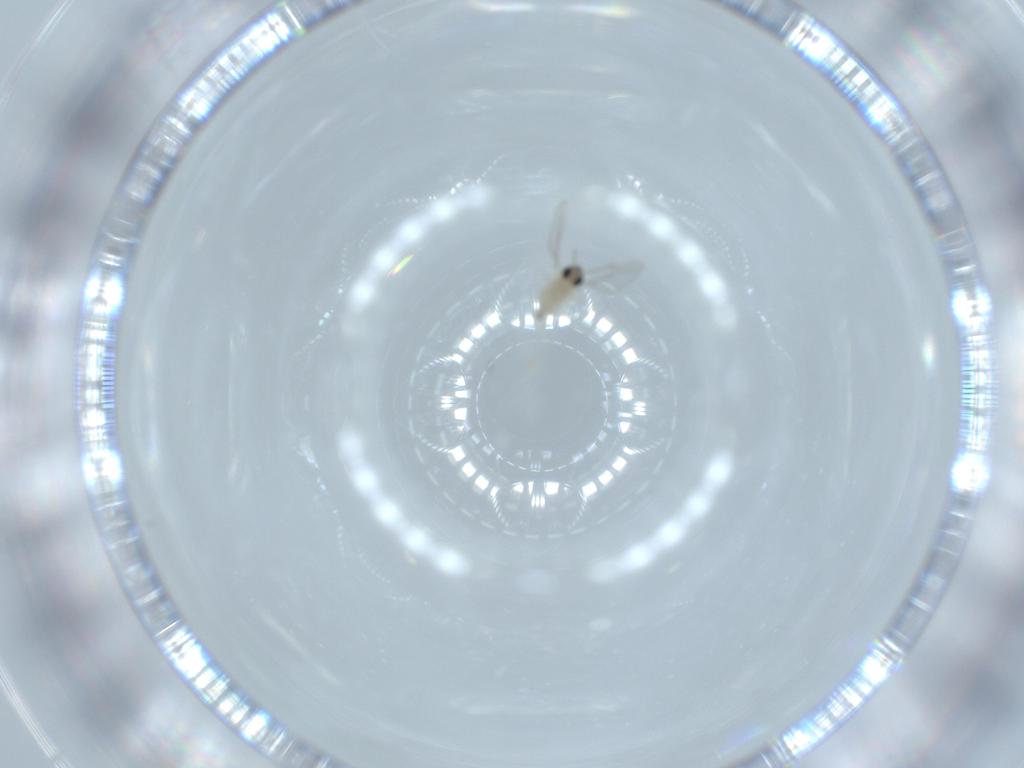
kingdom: Animalia
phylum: Arthropoda
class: Insecta
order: Diptera
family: Cecidomyiidae
